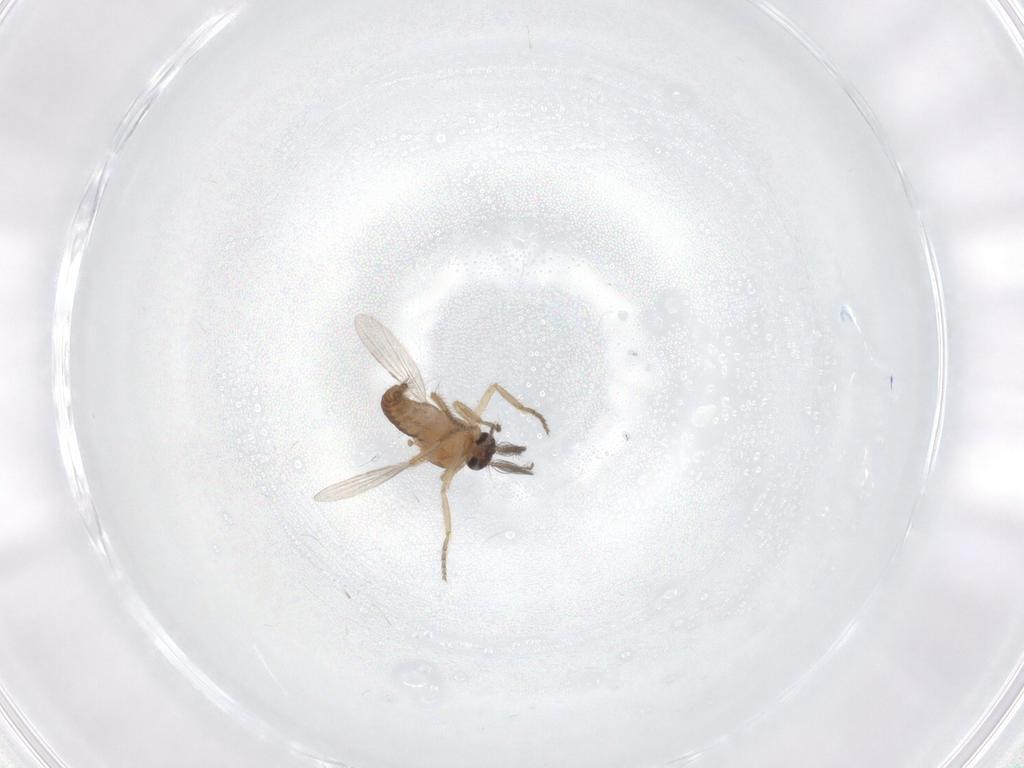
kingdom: Animalia
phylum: Arthropoda
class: Insecta
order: Diptera
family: Ceratopogonidae
